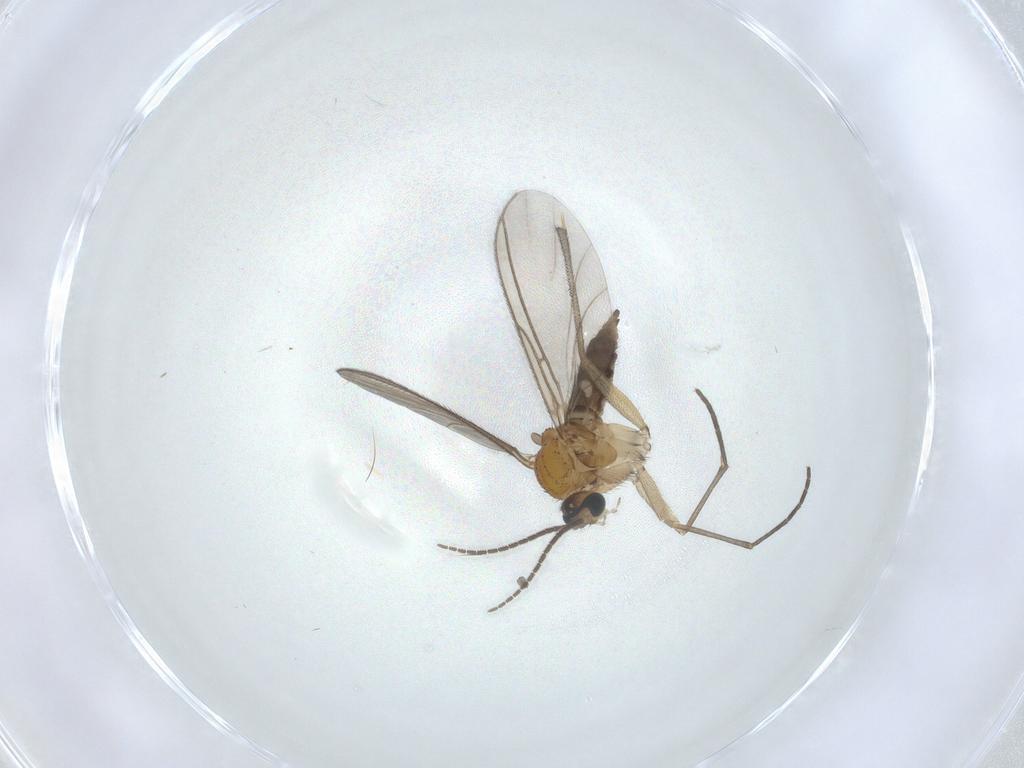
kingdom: Animalia
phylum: Arthropoda
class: Insecta
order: Diptera
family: Sciaridae
